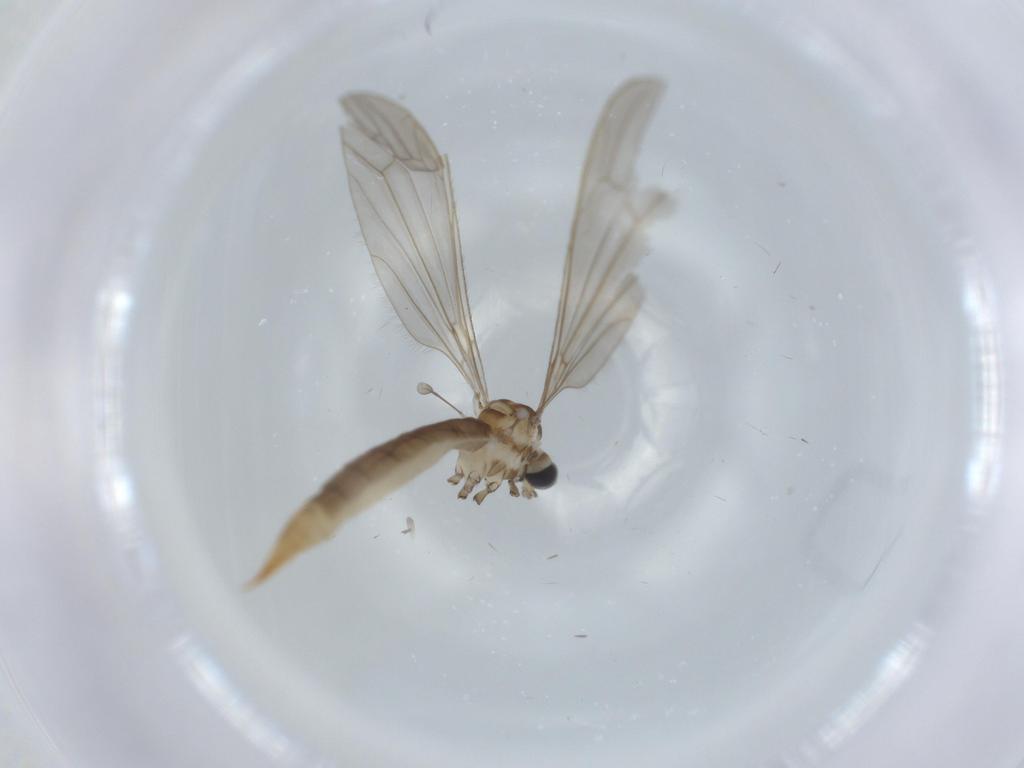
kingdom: Animalia
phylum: Arthropoda
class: Insecta
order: Diptera
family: Limoniidae
